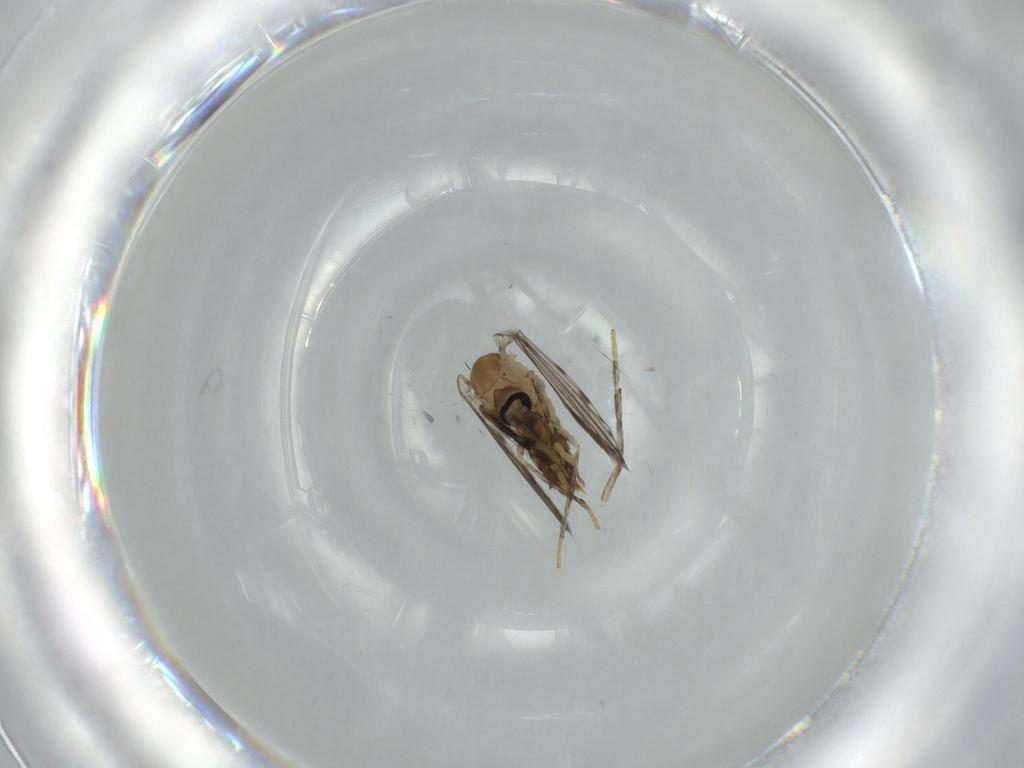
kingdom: Animalia
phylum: Arthropoda
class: Insecta
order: Diptera
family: Psychodidae
